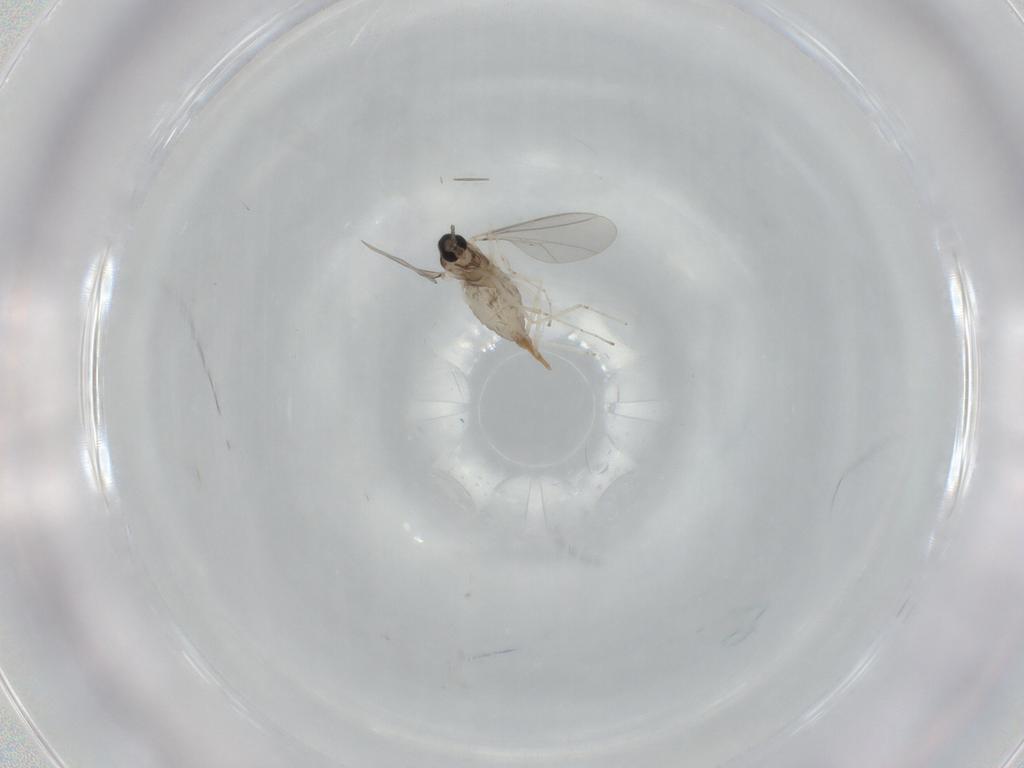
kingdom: Animalia
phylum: Arthropoda
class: Insecta
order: Diptera
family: Cecidomyiidae
